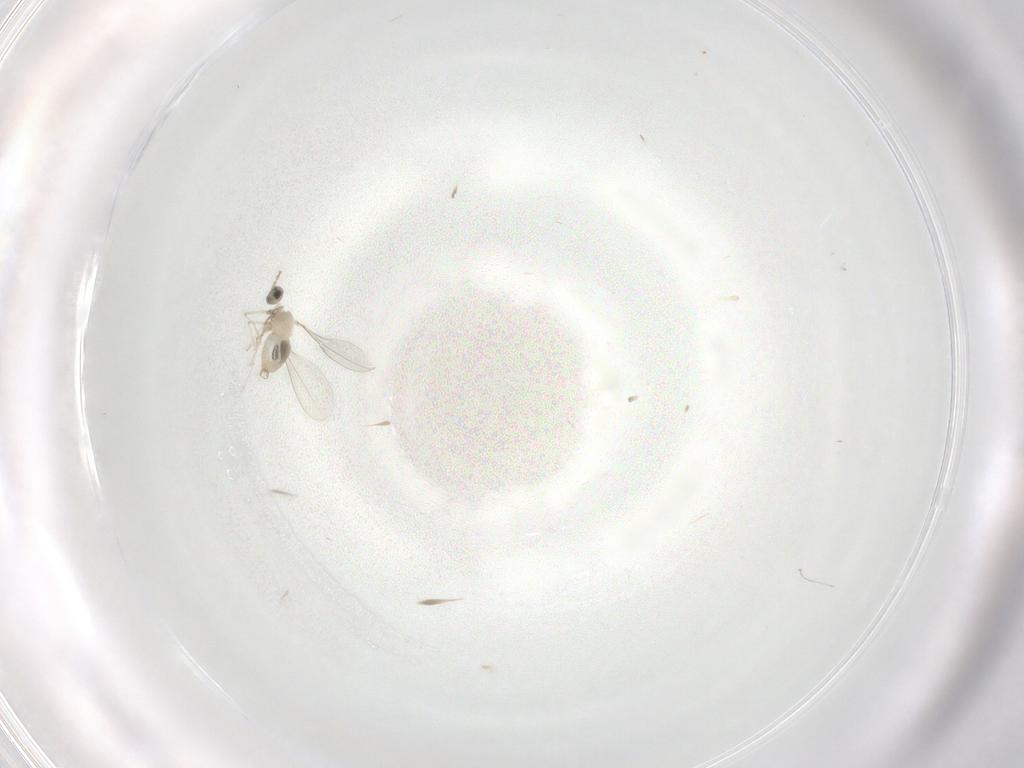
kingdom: Animalia
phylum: Arthropoda
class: Insecta
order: Diptera
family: Cecidomyiidae
